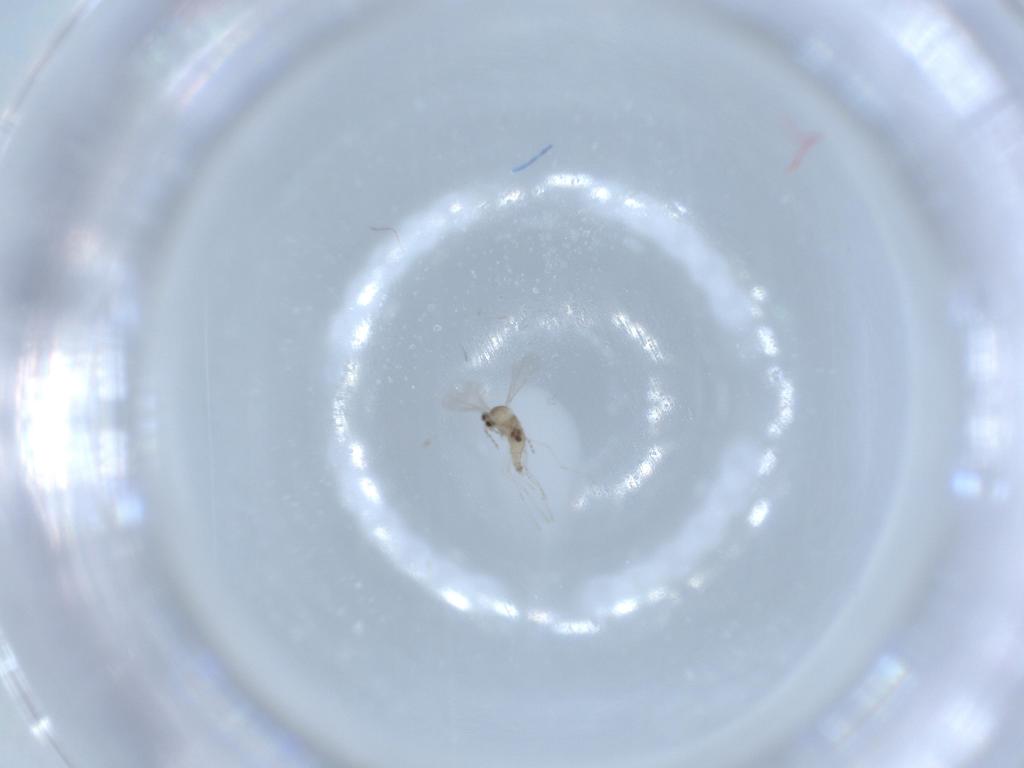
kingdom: Animalia
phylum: Arthropoda
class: Insecta
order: Diptera
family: Cecidomyiidae
